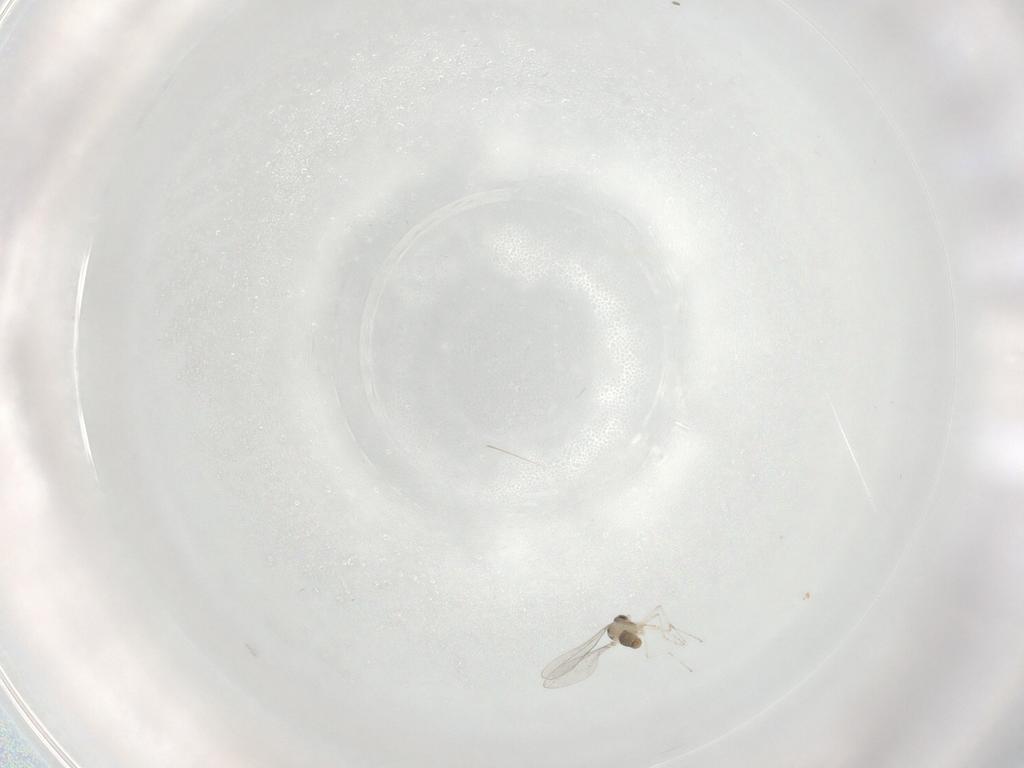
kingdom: Animalia
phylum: Arthropoda
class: Insecta
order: Diptera
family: Cecidomyiidae
